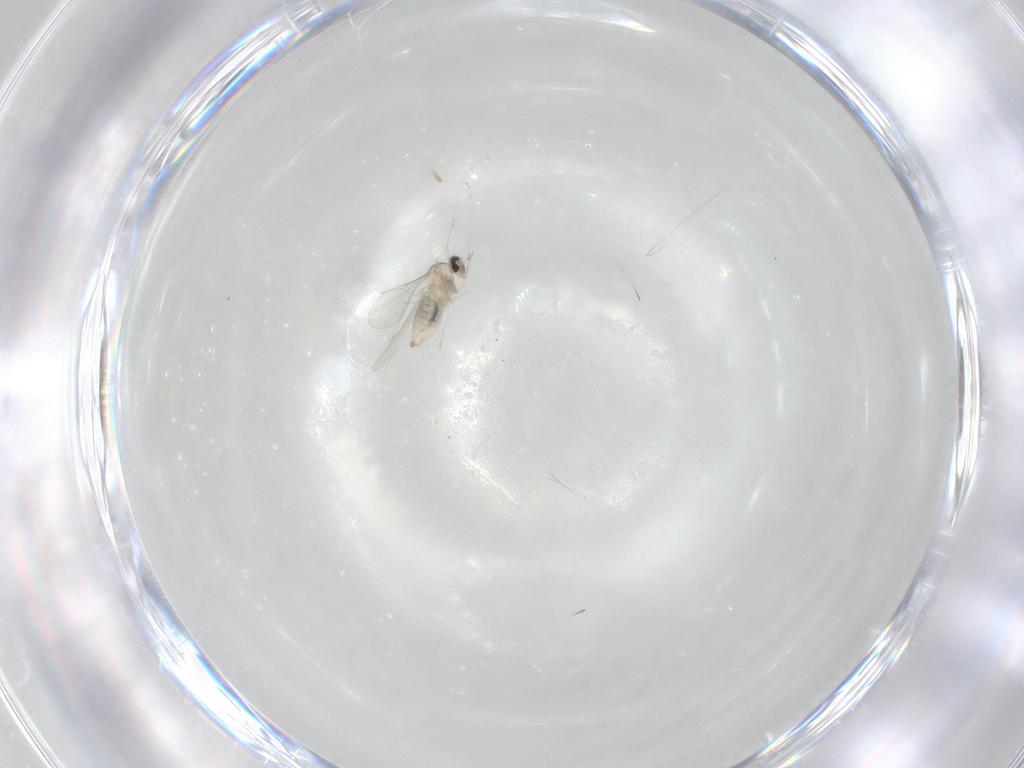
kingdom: Animalia
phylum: Arthropoda
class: Insecta
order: Diptera
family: Cecidomyiidae
